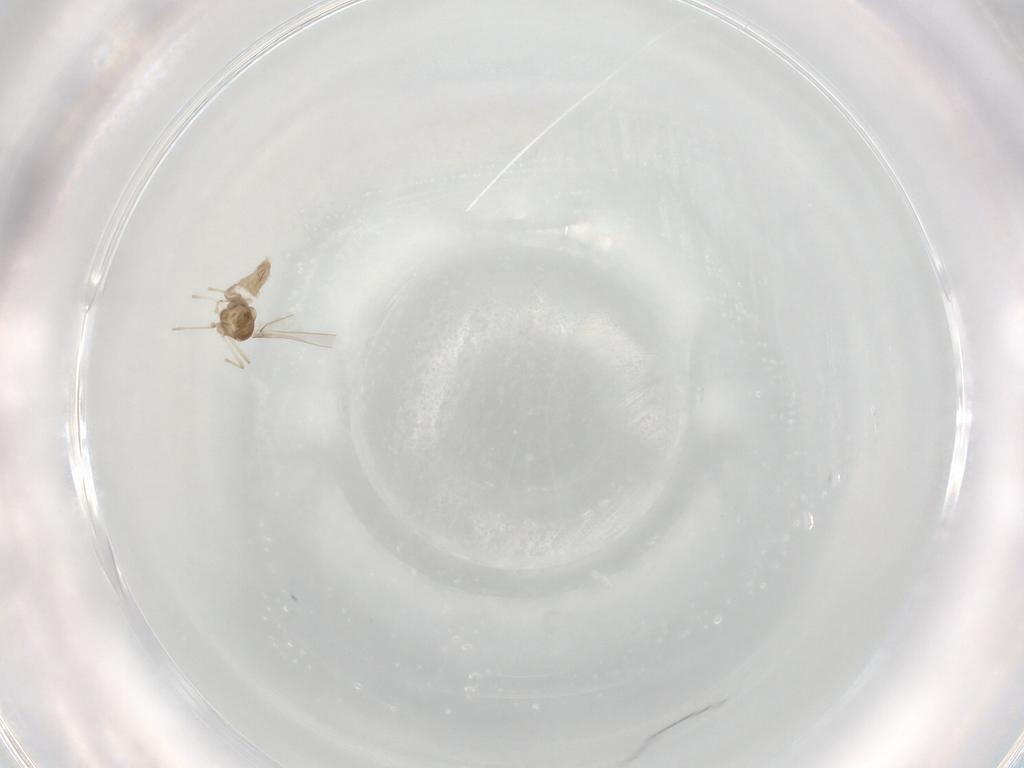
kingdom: Animalia
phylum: Arthropoda
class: Insecta
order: Diptera
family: Cecidomyiidae
